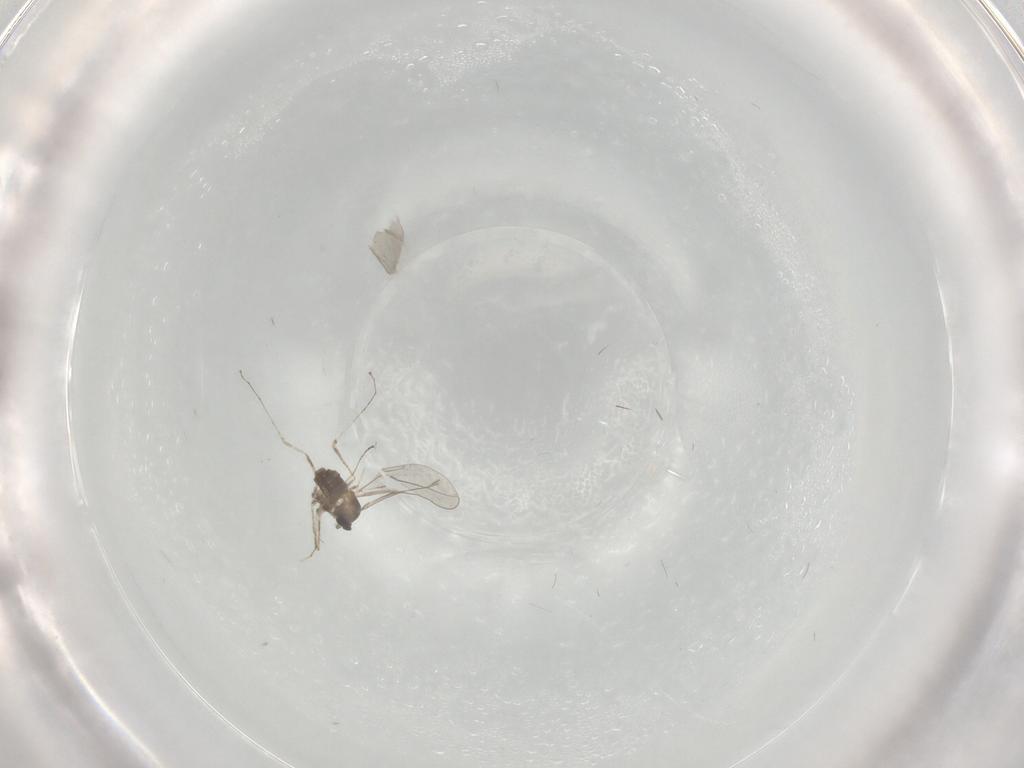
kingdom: Animalia
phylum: Arthropoda
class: Insecta
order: Diptera
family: Cecidomyiidae
